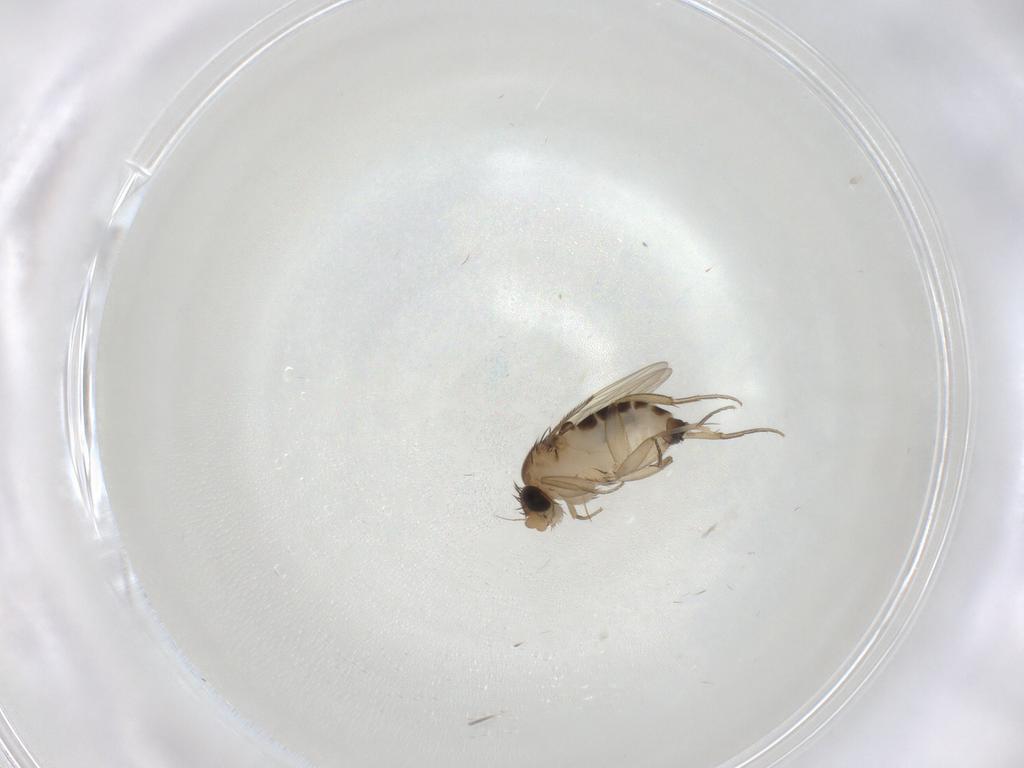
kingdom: Animalia
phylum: Arthropoda
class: Insecta
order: Diptera
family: Phoridae
